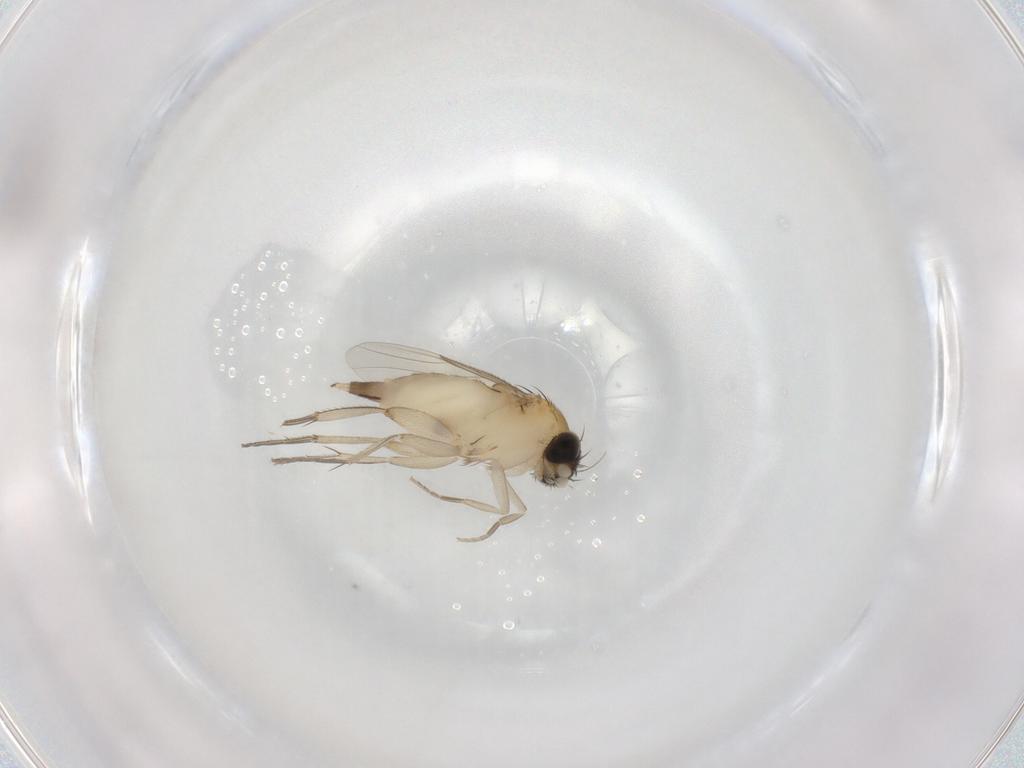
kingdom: Animalia
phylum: Arthropoda
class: Insecta
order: Diptera
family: Phoridae
